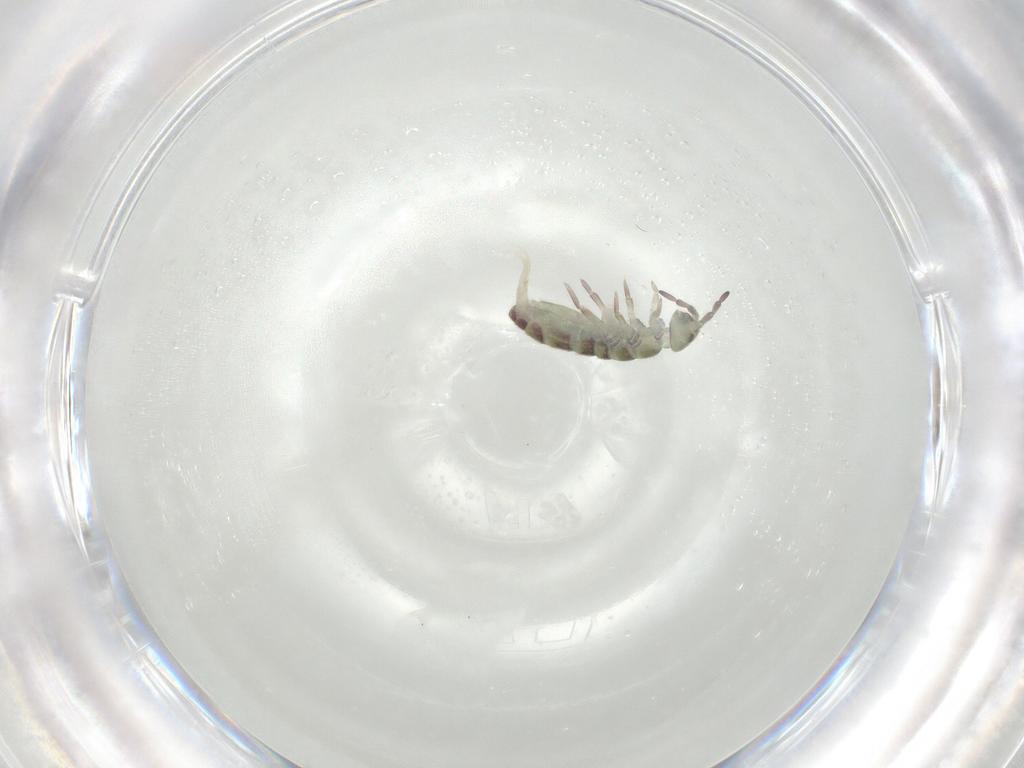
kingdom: Animalia
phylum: Arthropoda
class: Collembola
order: Entomobryomorpha
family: Isotomidae
